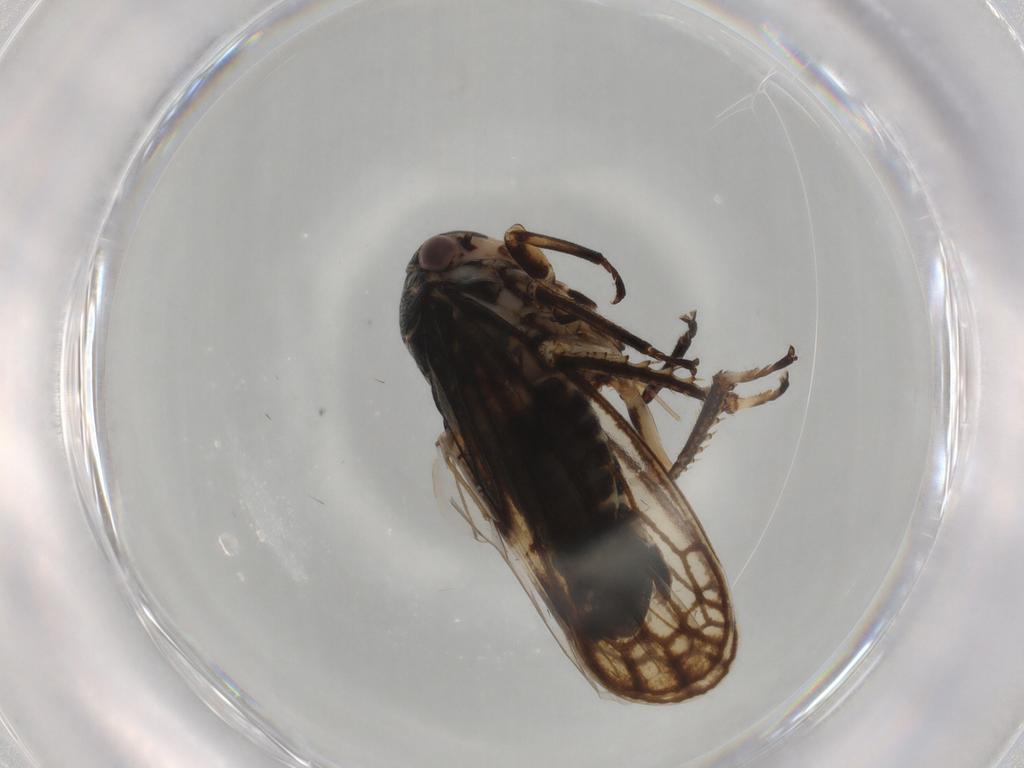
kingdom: Animalia
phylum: Arthropoda
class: Insecta
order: Hemiptera
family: Cicadellidae
